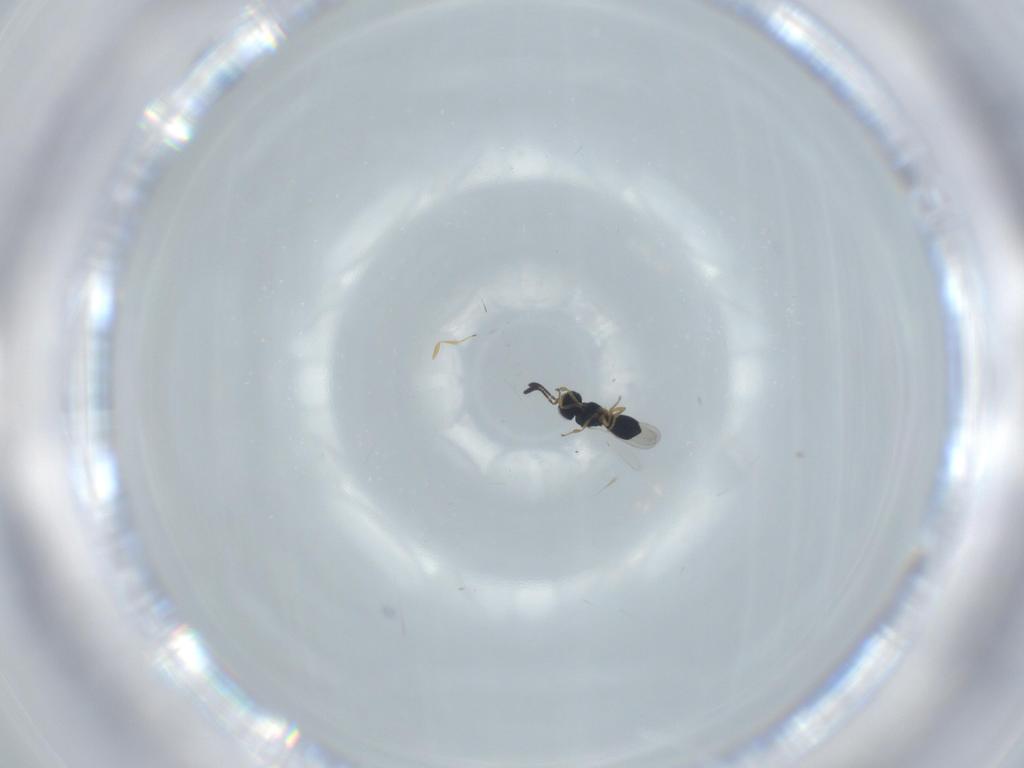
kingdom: Animalia
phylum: Arthropoda
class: Insecta
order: Hymenoptera
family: Scelionidae
